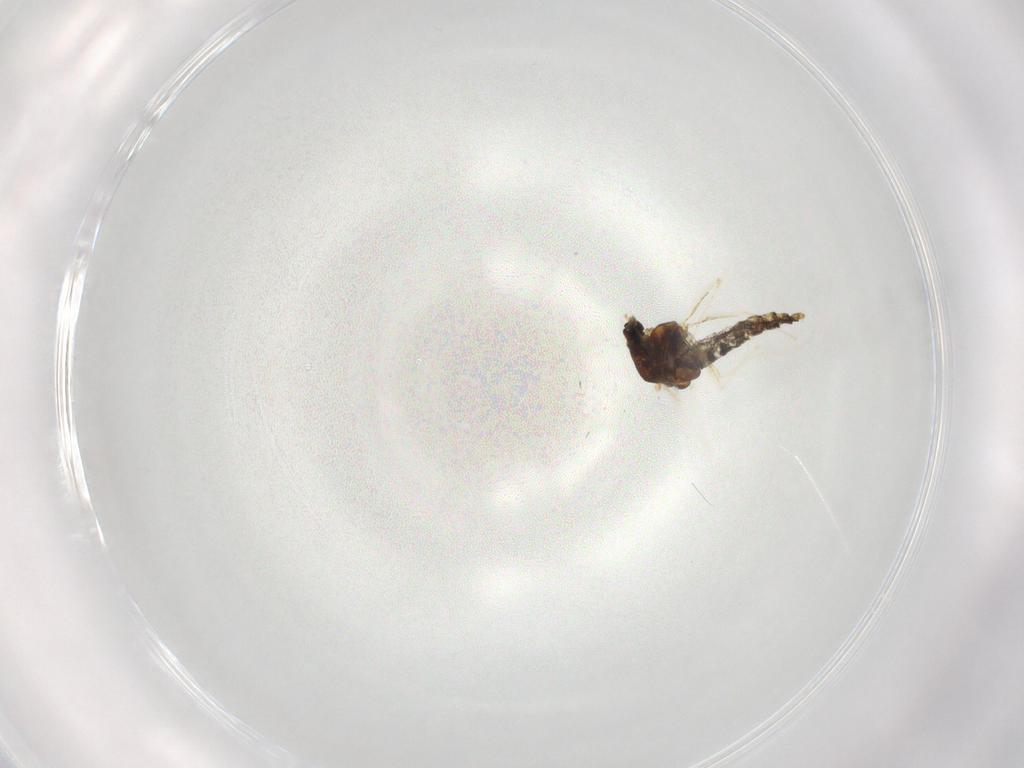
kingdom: Animalia
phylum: Arthropoda
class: Insecta
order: Diptera
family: Chironomidae
